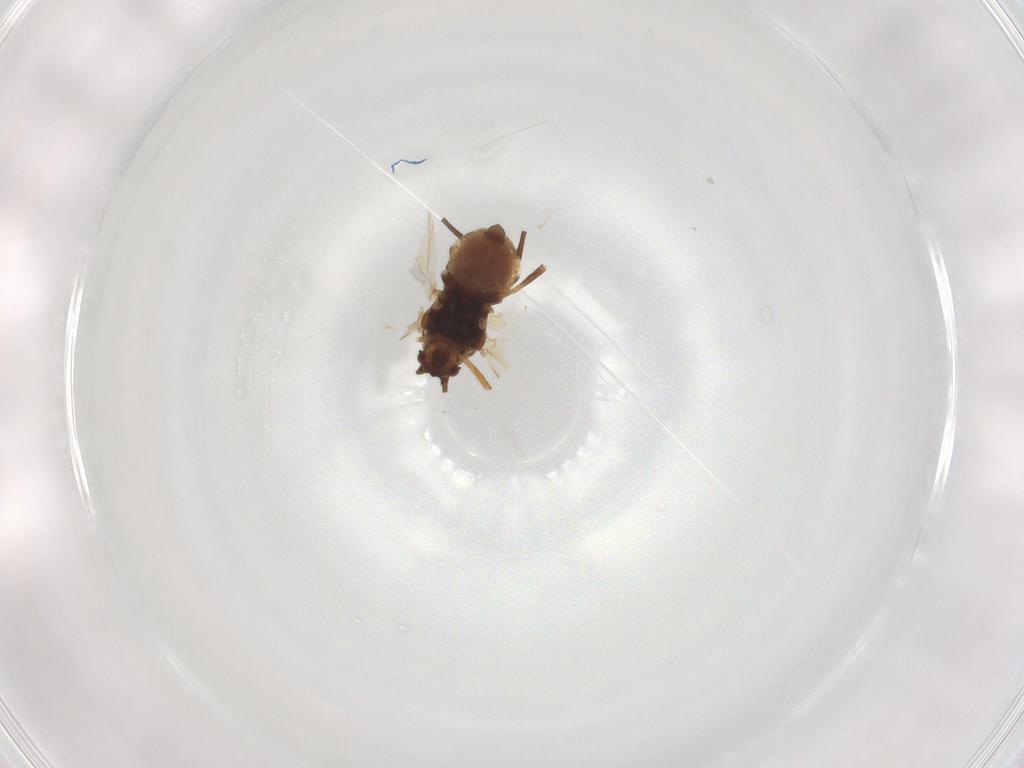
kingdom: Animalia
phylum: Arthropoda
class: Insecta
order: Hemiptera
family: Aphididae
